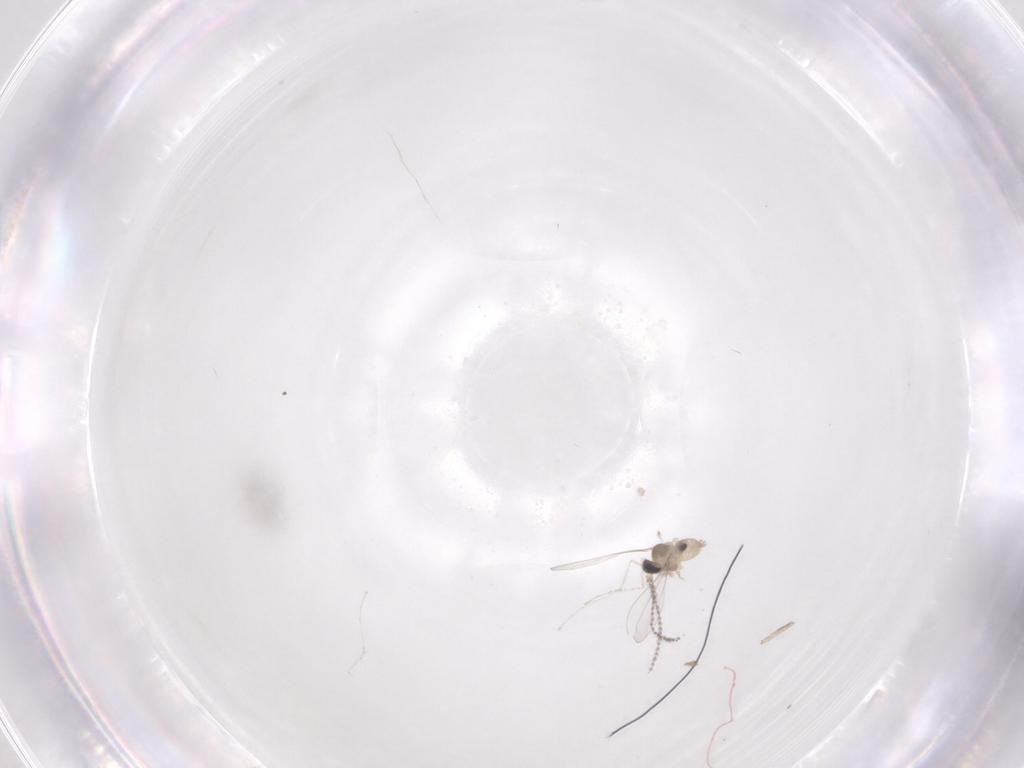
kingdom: Animalia
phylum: Arthropoda
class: Insecta
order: Diptera
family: Cecidomyiidae
